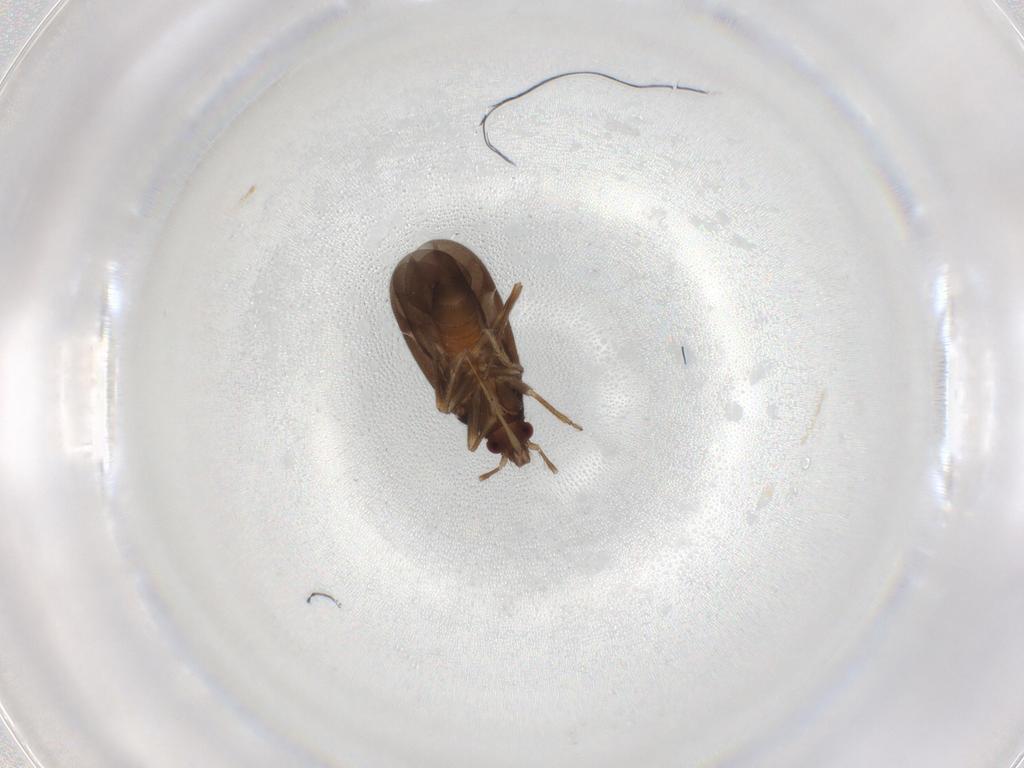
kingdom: Animalia
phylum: Arthropoda
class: Insecta
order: Hemiptera
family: Ceratocombidae
